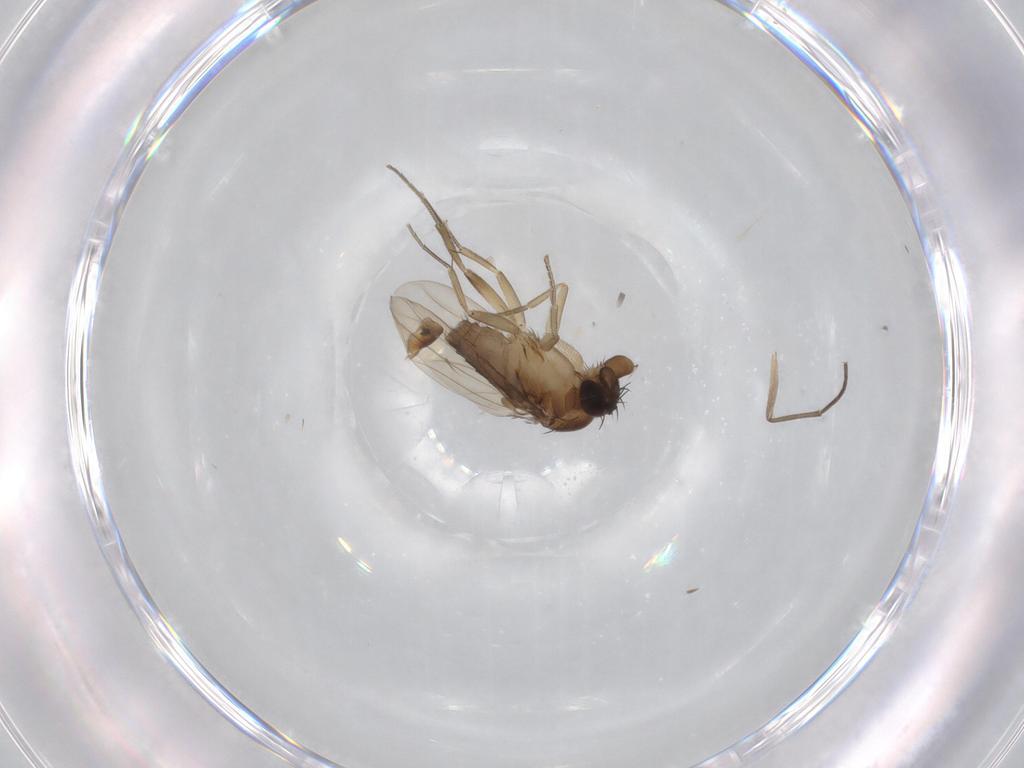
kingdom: Animalia
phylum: Arthropoda
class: Insecta
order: Diptera
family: Phoridae
